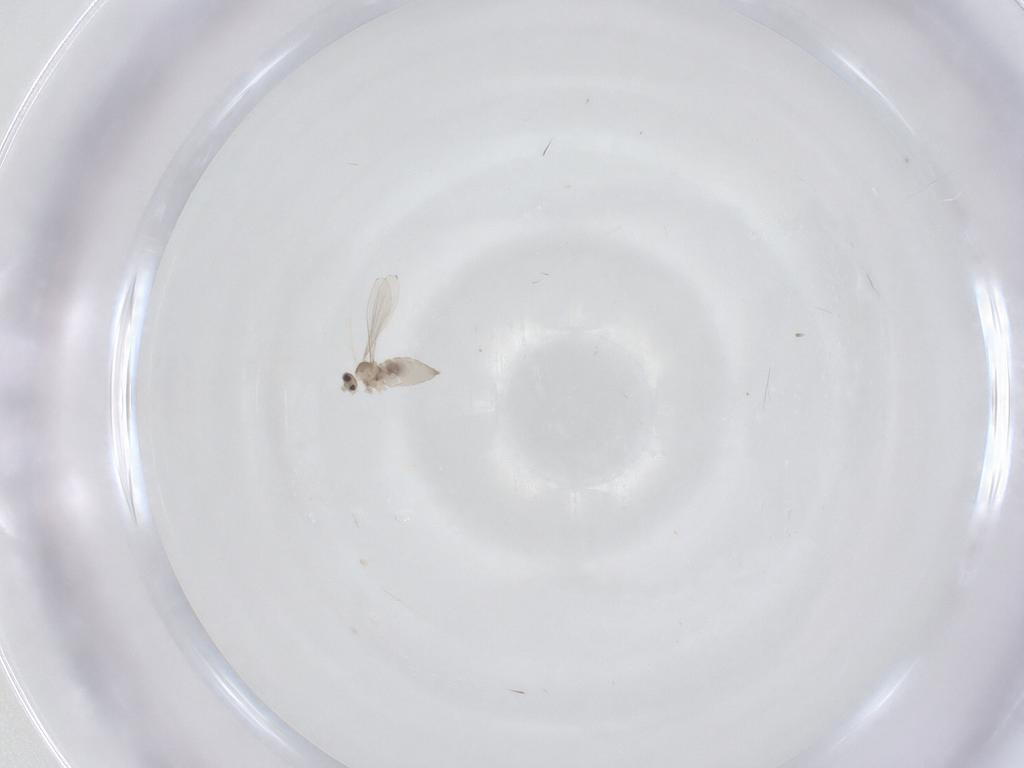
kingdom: Animalia
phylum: Arthropoda
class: Insecta
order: Diptera
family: Cecidomyiidae
